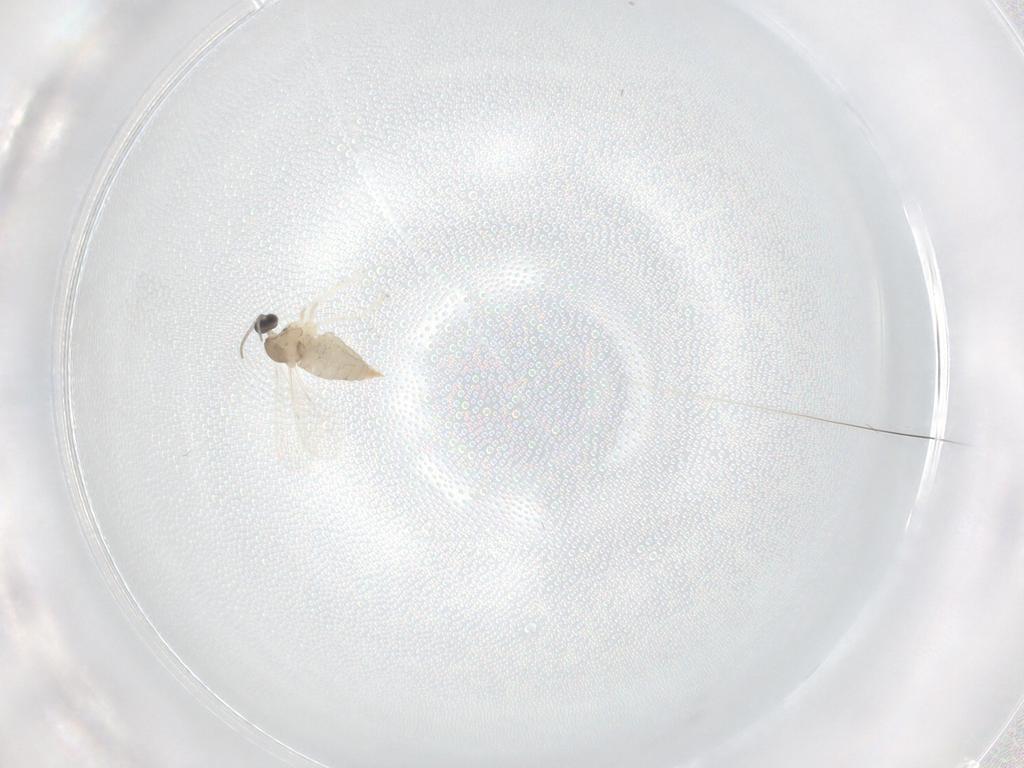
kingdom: Animalia
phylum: Arthropoda
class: Insecta
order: Diptera
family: Cecidomyiidae
